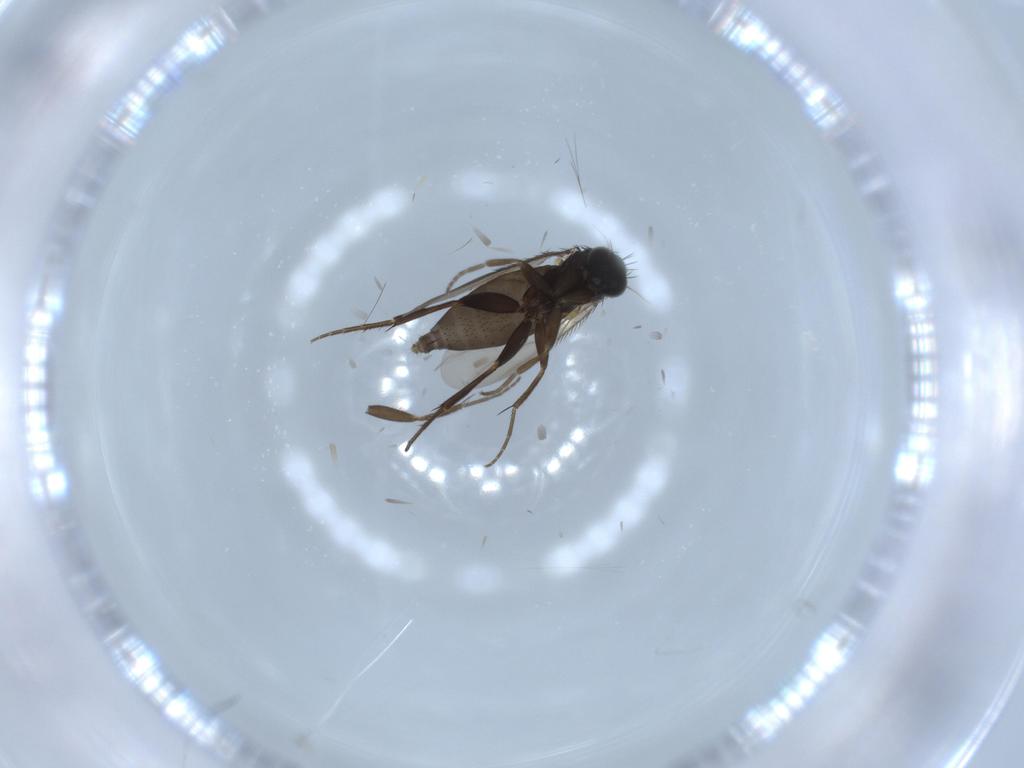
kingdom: Animalia
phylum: Arthropoda
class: Insecta
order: Diptera
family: Phoridae
